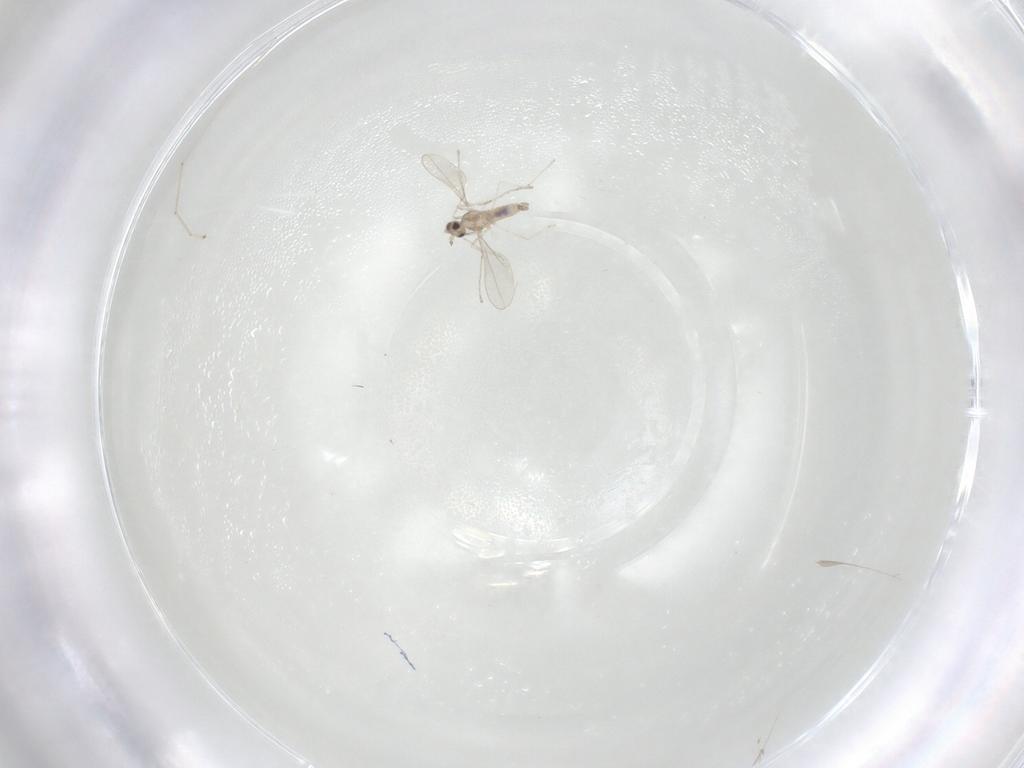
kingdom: Animalia
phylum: Arthropoda
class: Insecta
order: Diptera
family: Cecidomyiidae
